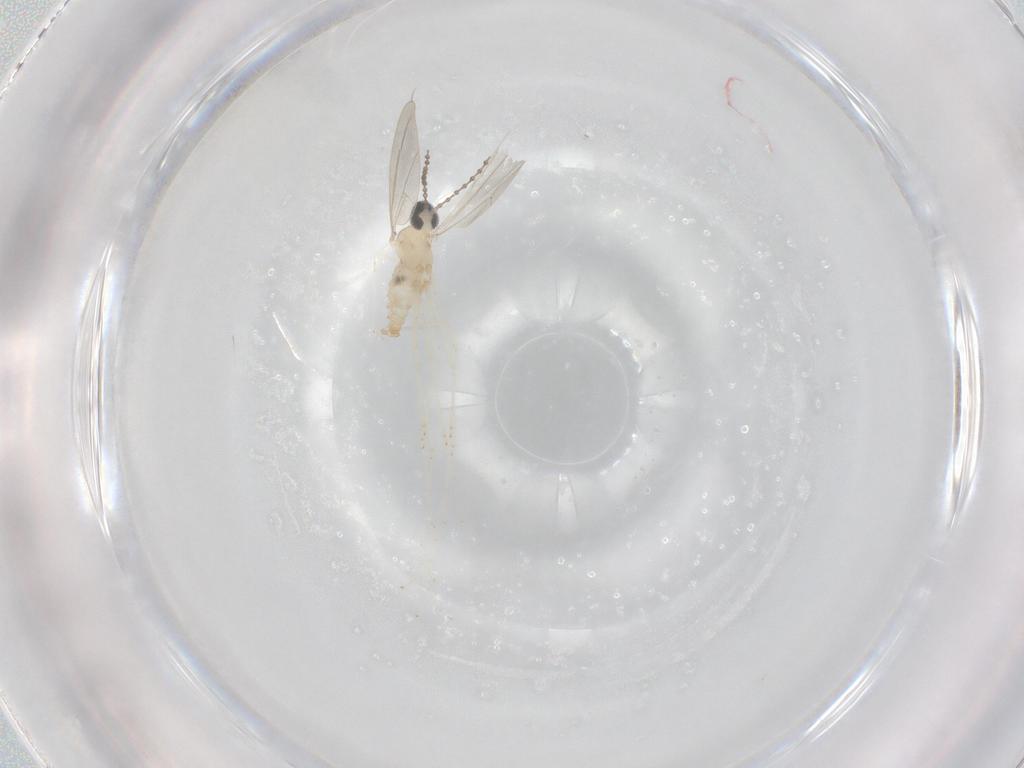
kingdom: Animalia
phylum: Arthropoda
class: Insecta
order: Diptera
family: Cecidomyiidae
